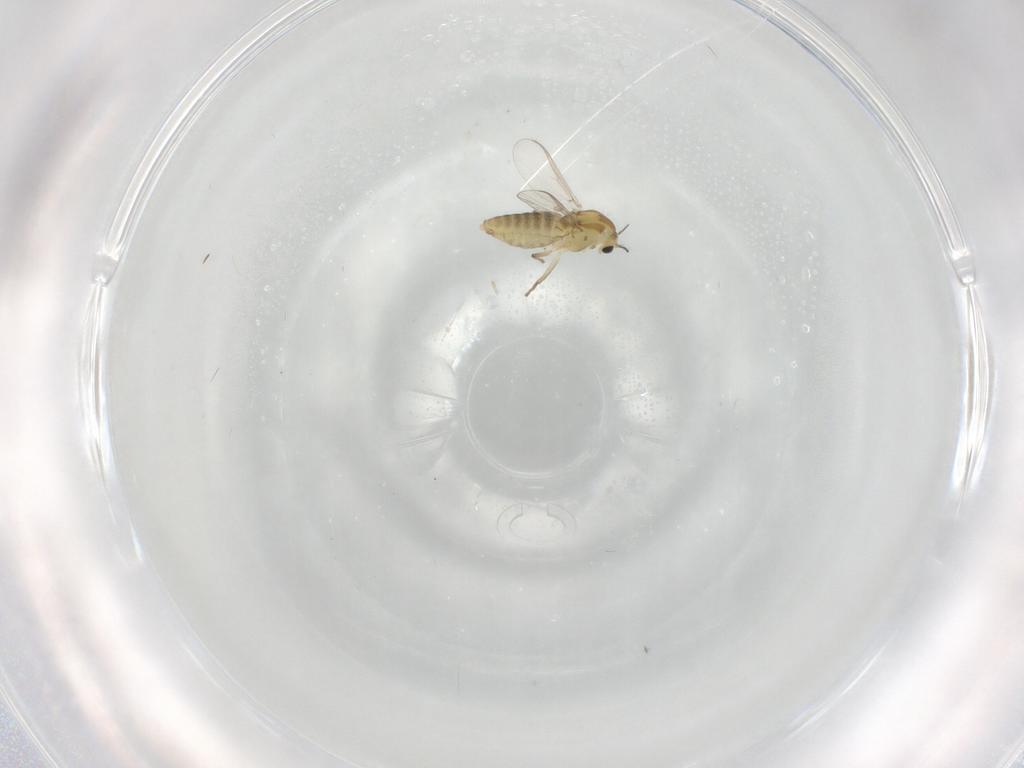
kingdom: Animalia
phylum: Arthropoda
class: Insecta
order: Diptera
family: Chironomidae
